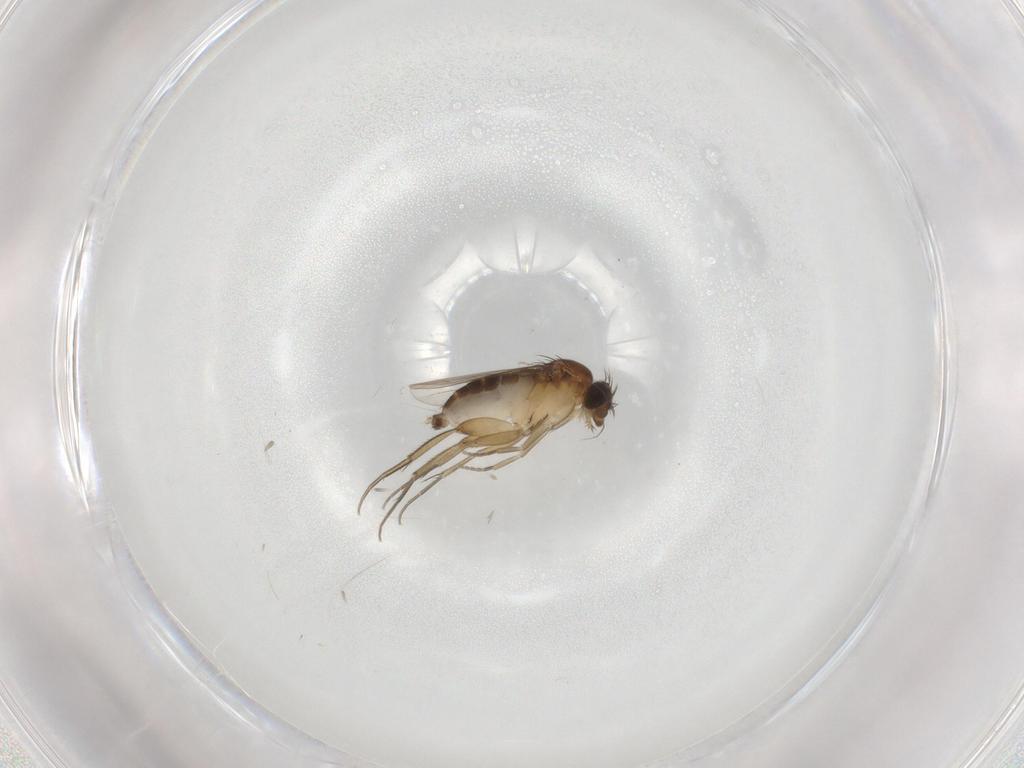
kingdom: Animalia
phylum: Arthropoda
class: Insecta
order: Diptera
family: Phoridae
